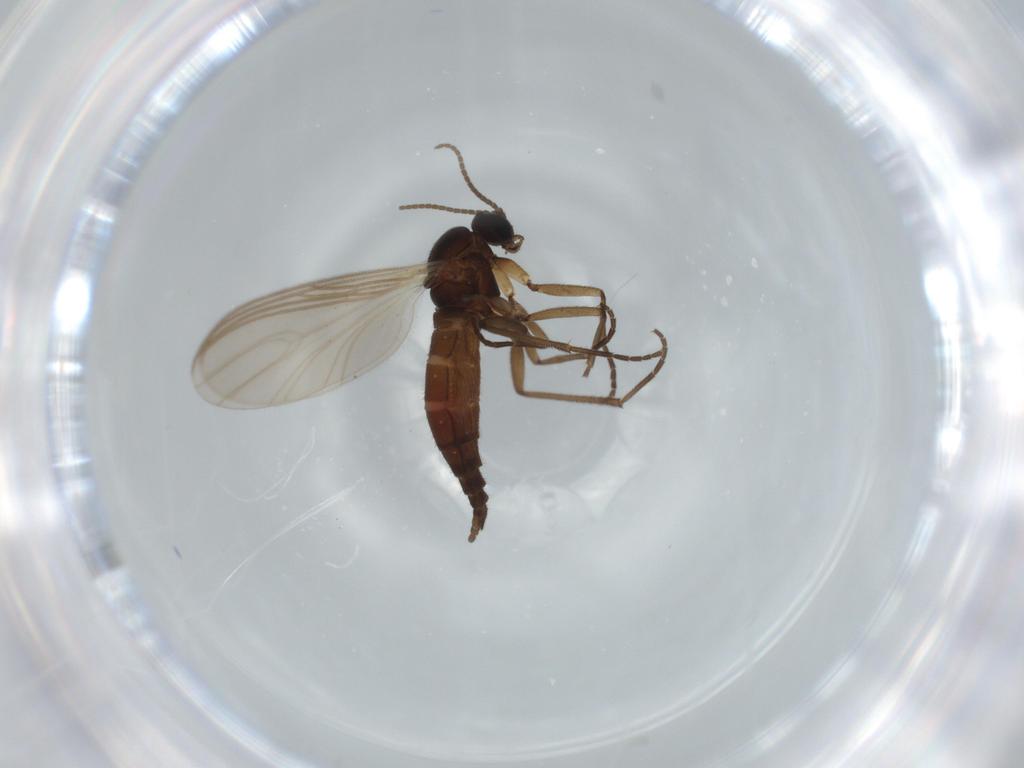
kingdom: Animalia
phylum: Arthropoda
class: Insecta
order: Diptera
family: Sciaridae
